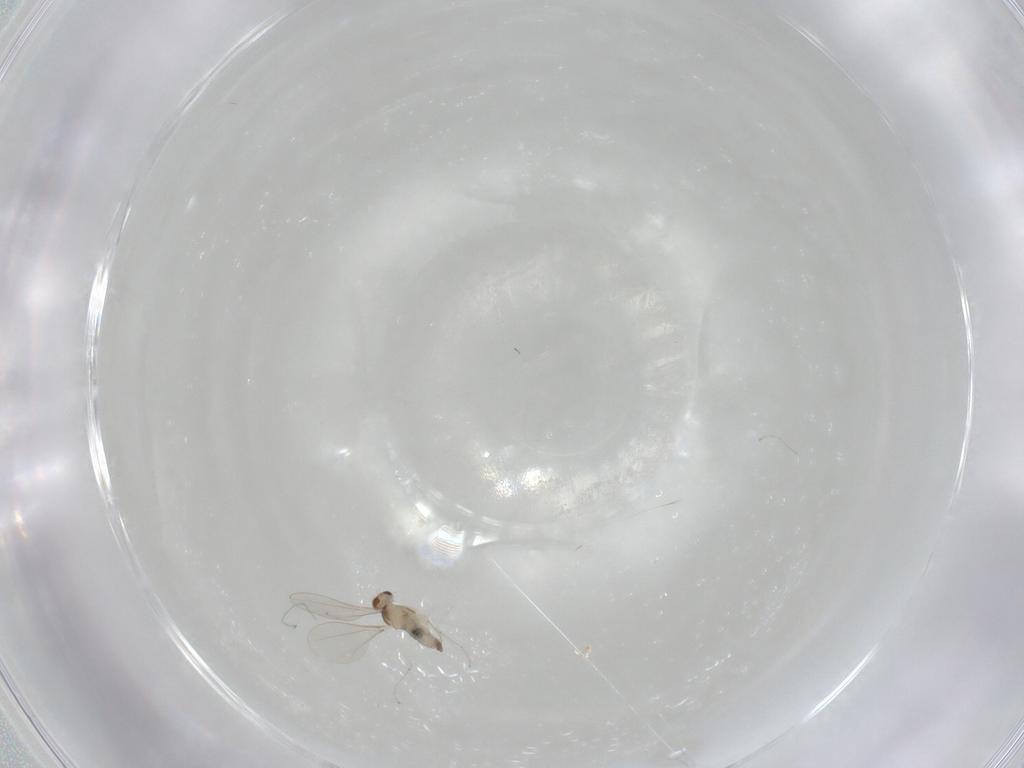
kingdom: Animalia
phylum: Arthropoda
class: Insecta
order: Diptera
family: Cecidomyiidae
